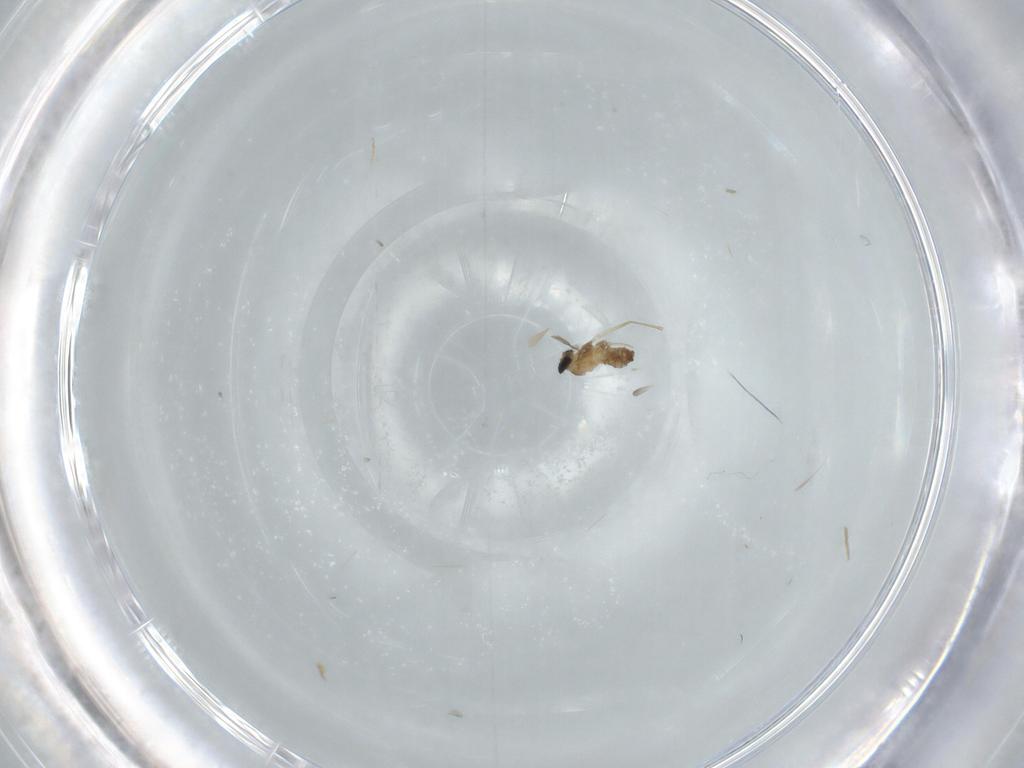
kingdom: Animalia
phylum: Arthropoda
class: Insecta
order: Diptera
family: Cecidomyiidae
